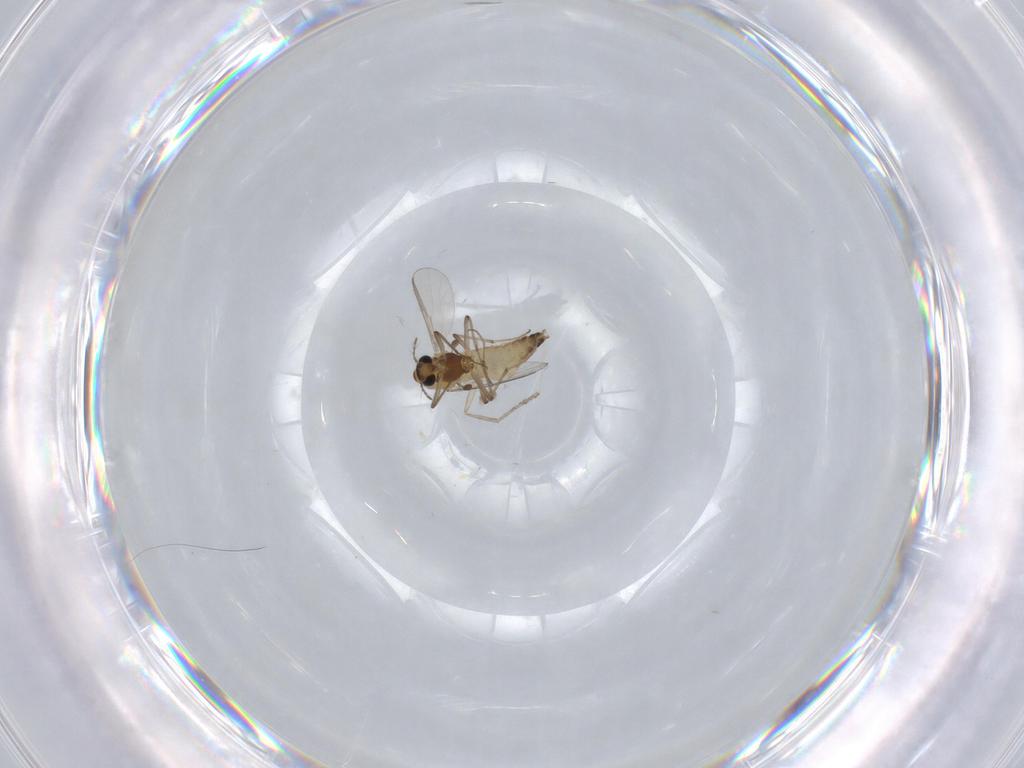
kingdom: Animalia
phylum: Arthropoda
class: Insecta
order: Diptera
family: Chironomidae
